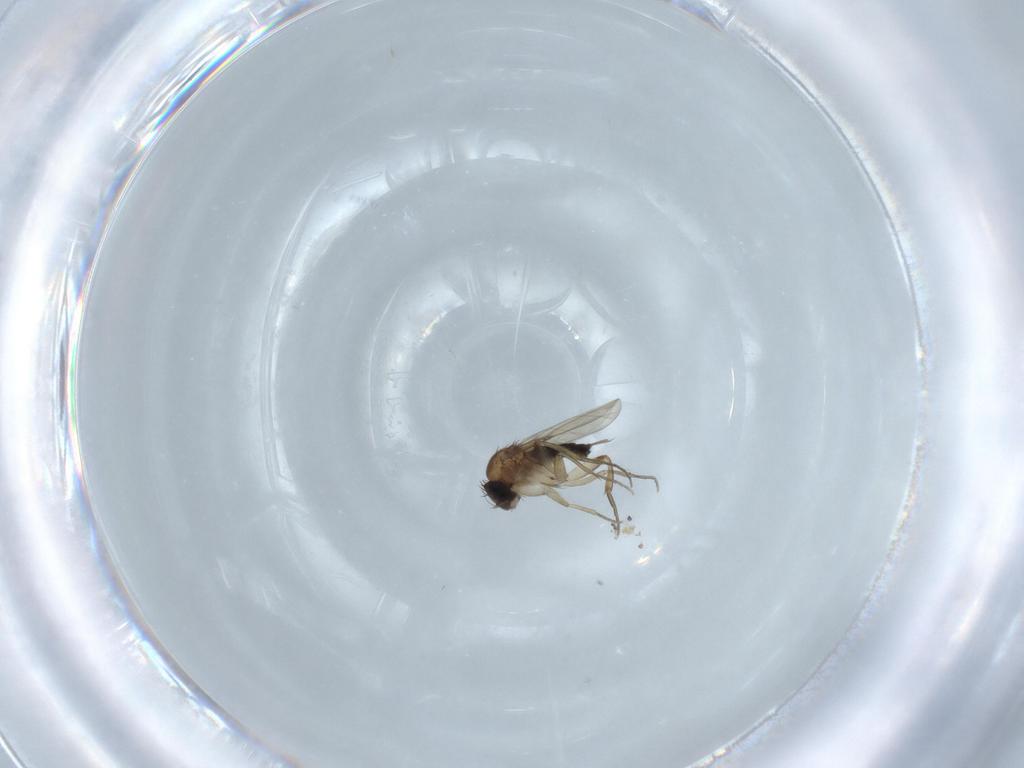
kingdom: Animalia
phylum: Arthropoda
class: Insecta
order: Diptera
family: Phoridae
